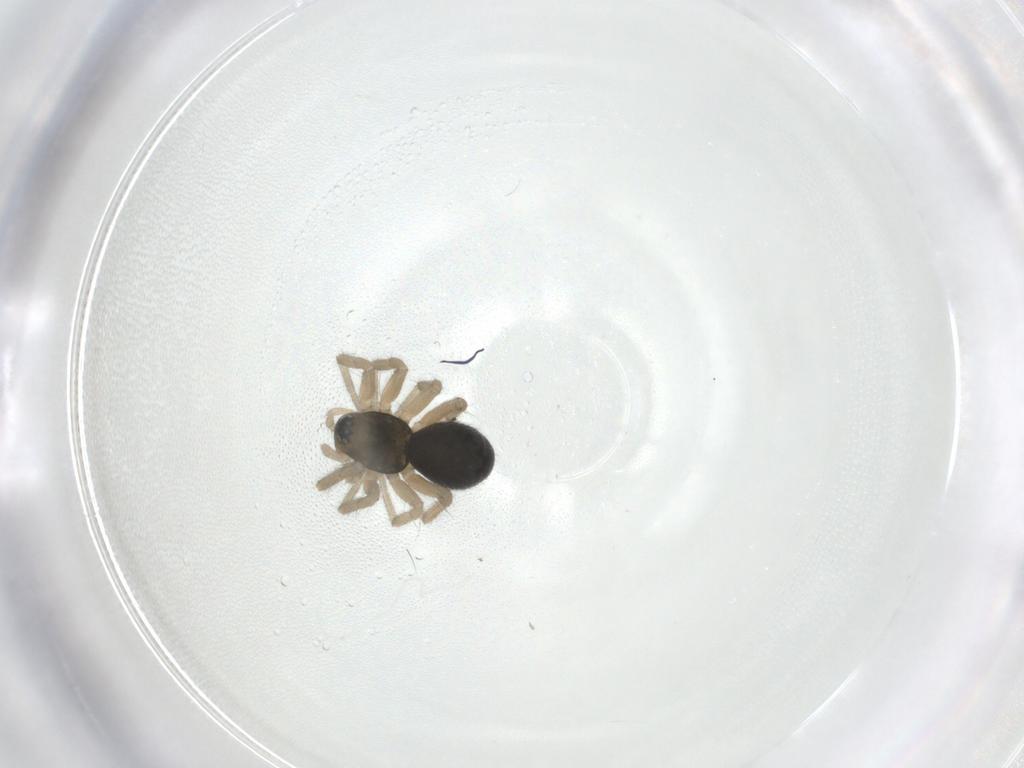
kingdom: Animalia
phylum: Arthropoda
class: Insecta
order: Diptera
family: Psychodidae
